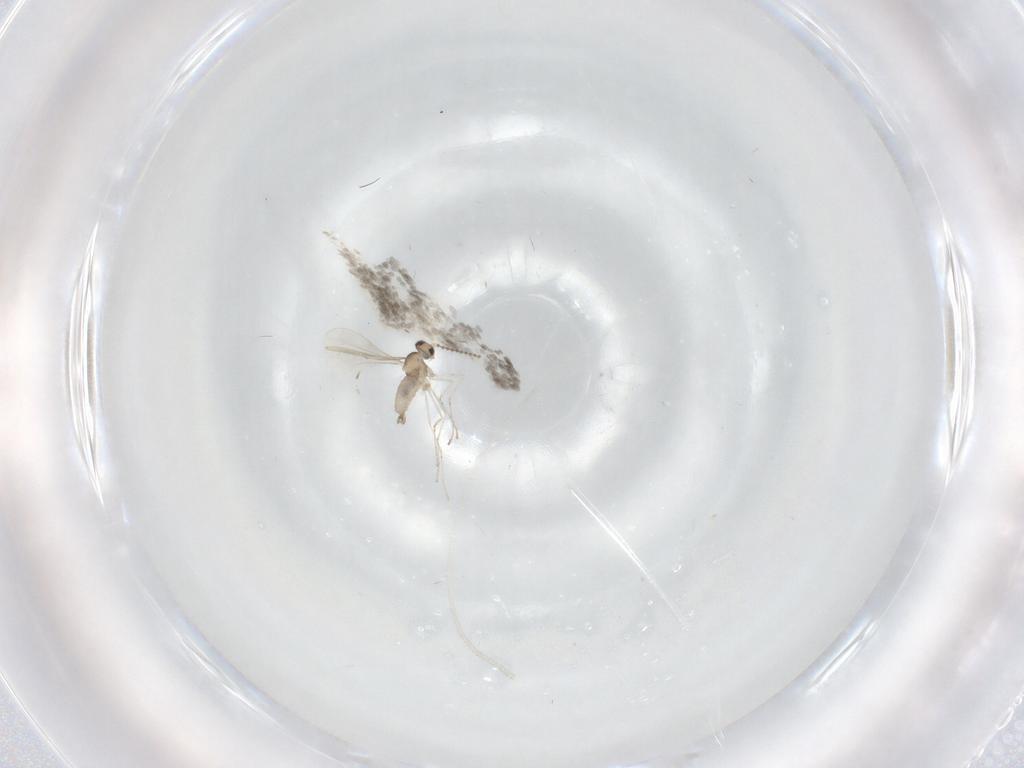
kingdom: Animalia
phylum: Arthropoda
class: Insecta
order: Diptera
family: Cecidomyiidae
